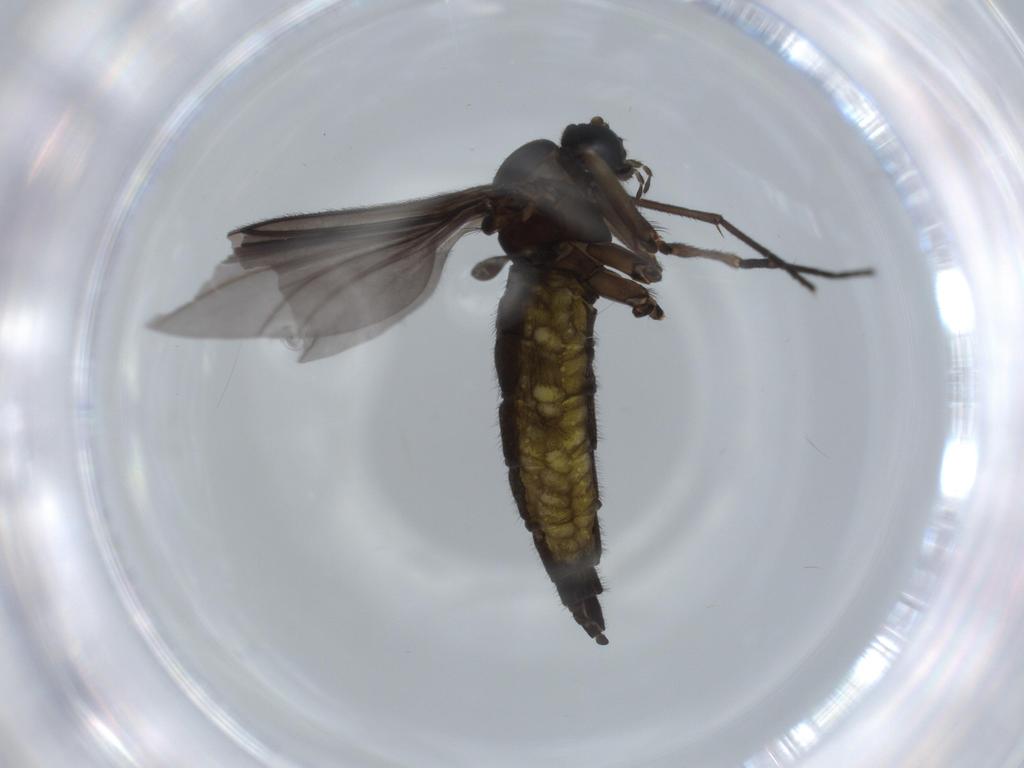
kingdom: Animalia
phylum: Arthropoda
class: Insecta
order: Diptera
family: Sciaridae
